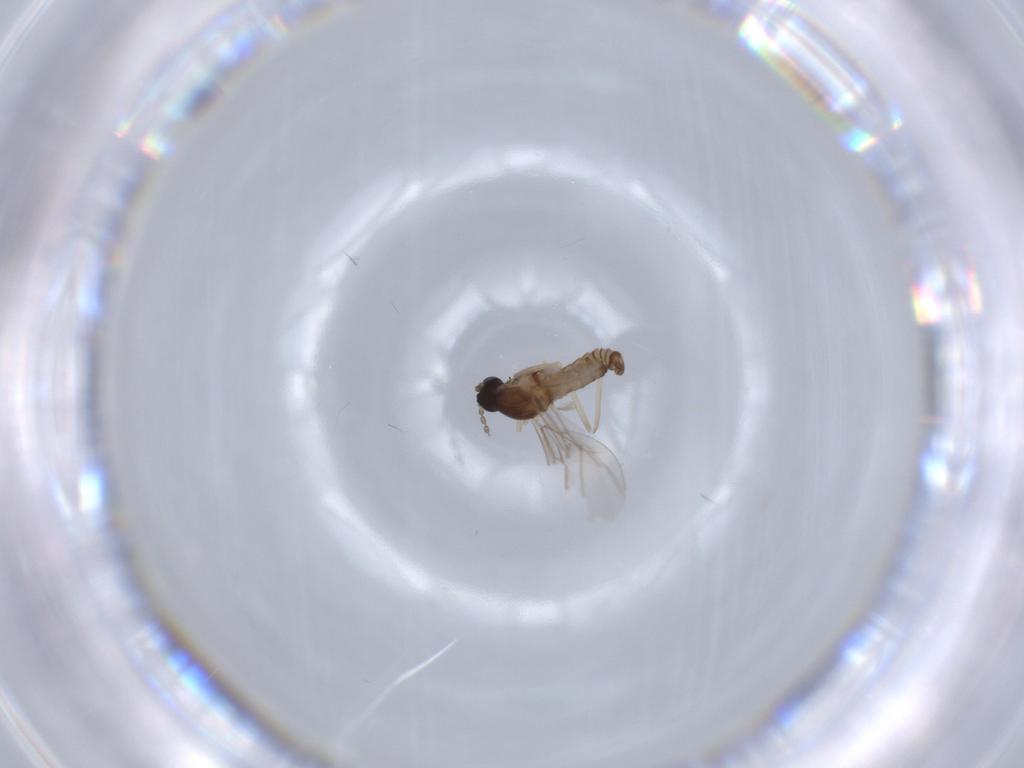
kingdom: Animalia
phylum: Arthropoda
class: Insecta
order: Diptera
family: Cecidomyiidae
